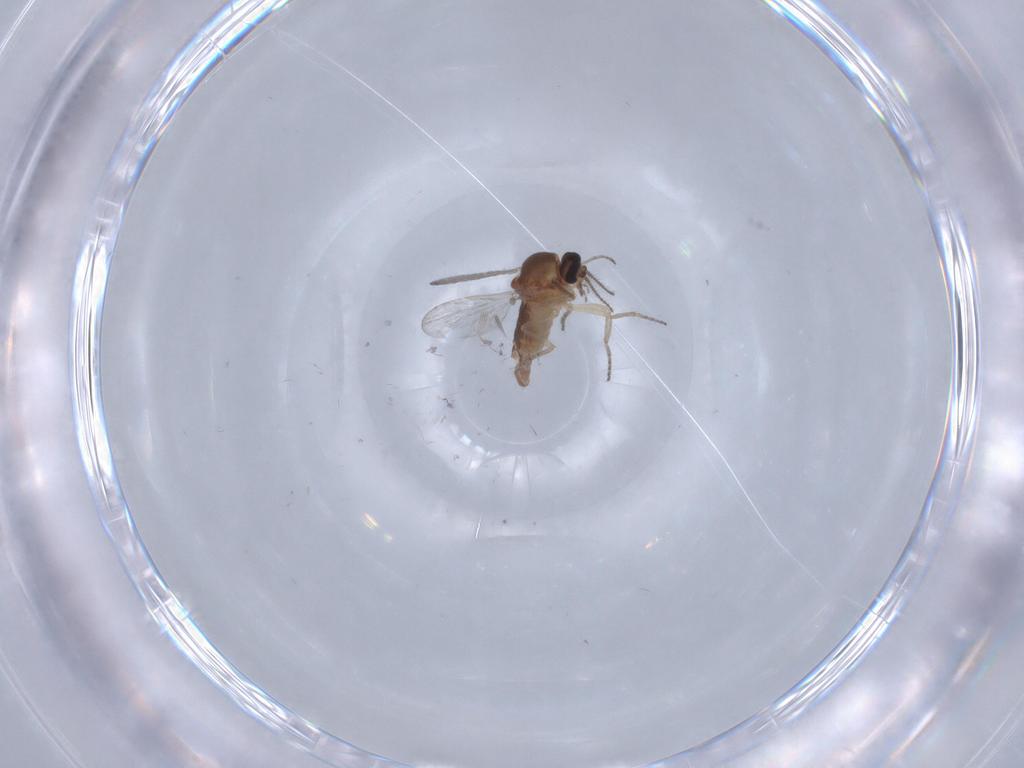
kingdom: Animalia
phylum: Arthropoda
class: Insecta
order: Diptera
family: Ceratopogonidae
